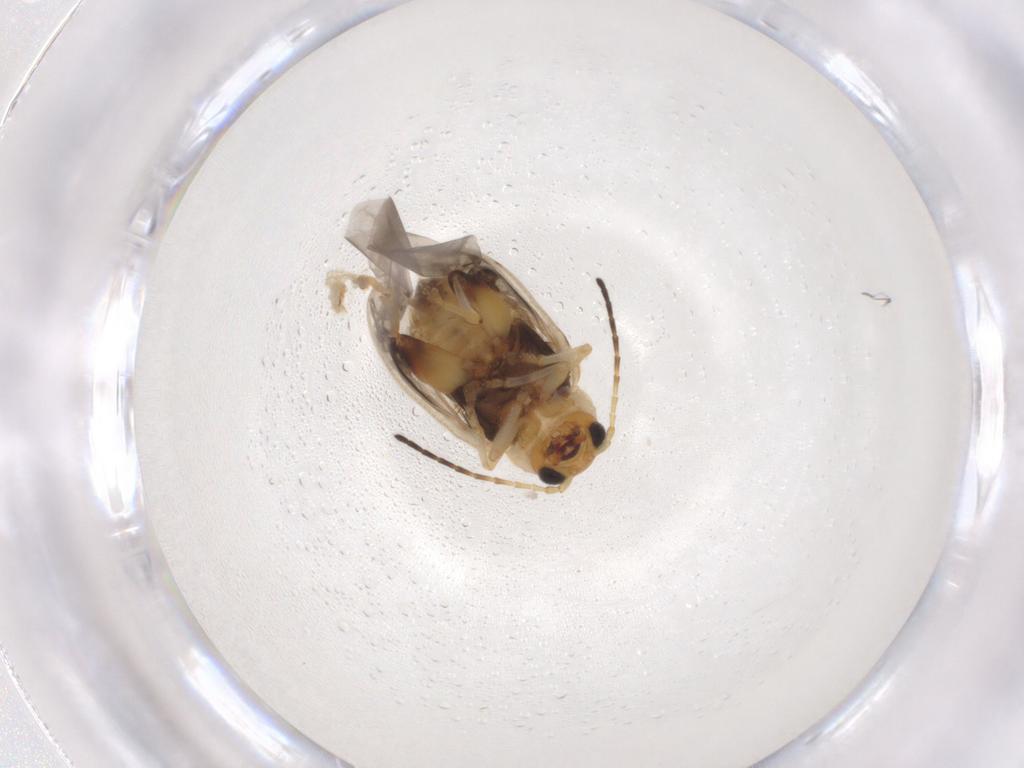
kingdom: Animalia
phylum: Arthropoda
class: Insecta
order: Coleoptera
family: Chrysomelidae
